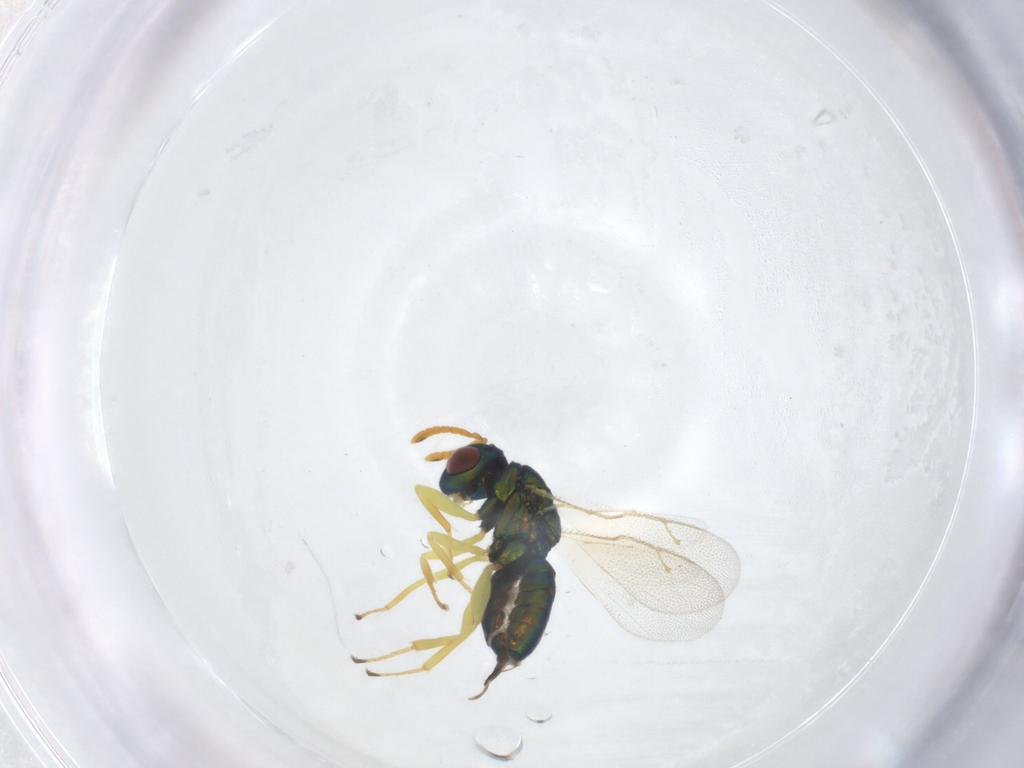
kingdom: Animalia
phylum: Arthropoda
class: Insecta
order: Hymenoptera
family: Pteromalidae
